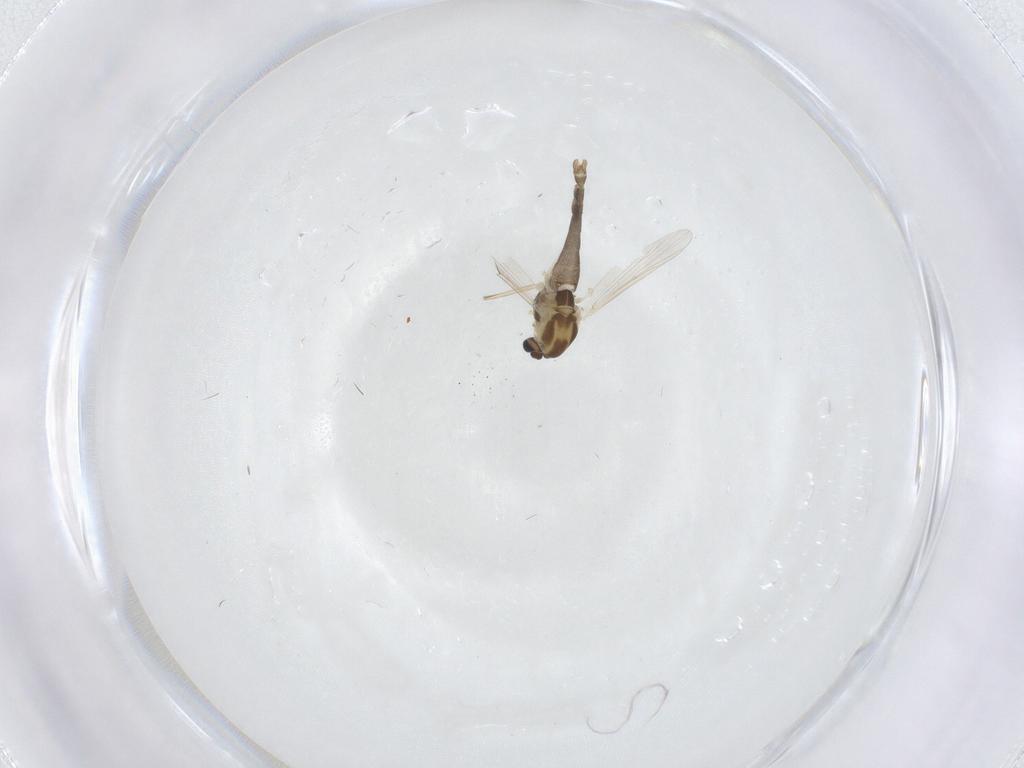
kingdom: Animalia
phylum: Arthropoda
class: Insecta
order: Diptera
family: Chironomidae
